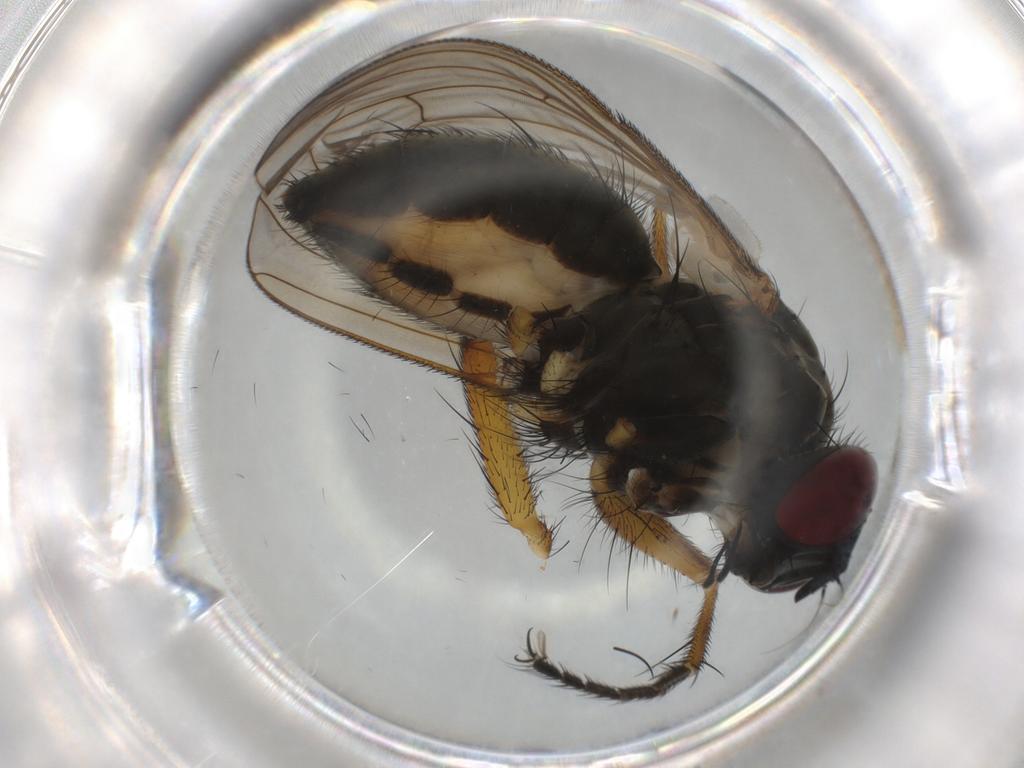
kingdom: Animalia
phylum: Arthropoda
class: Insecta
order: Diptera
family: Muscidae
